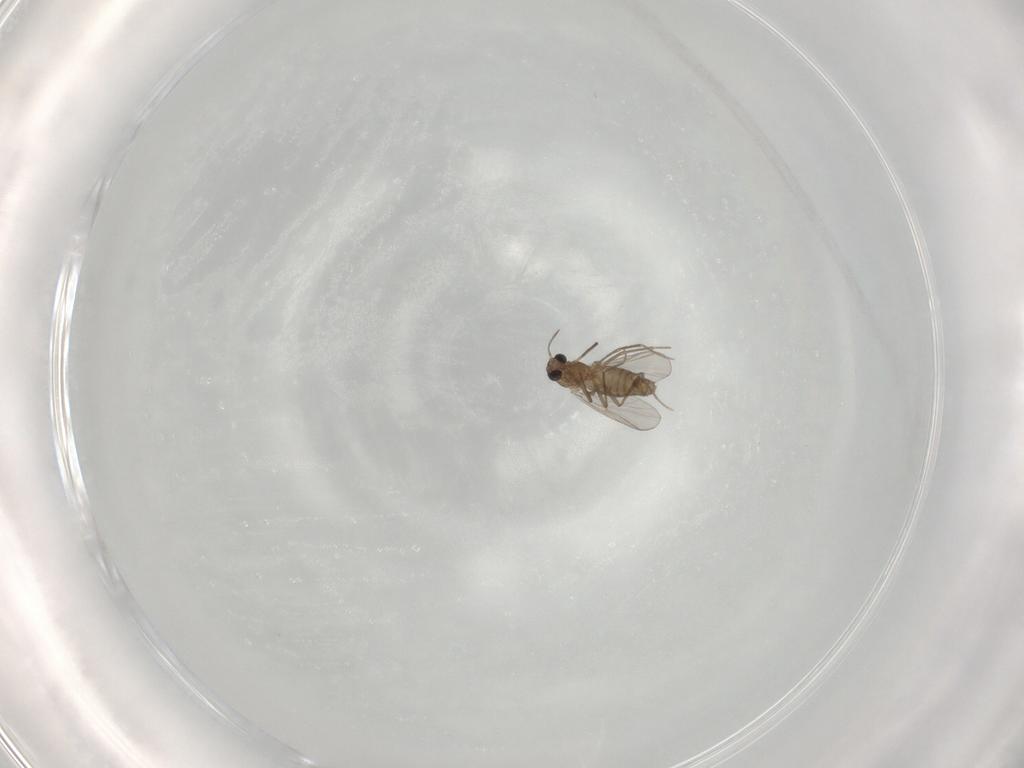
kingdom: Animalia
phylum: Arthropoda
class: Insecta
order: Diptera
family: Chironomidae
